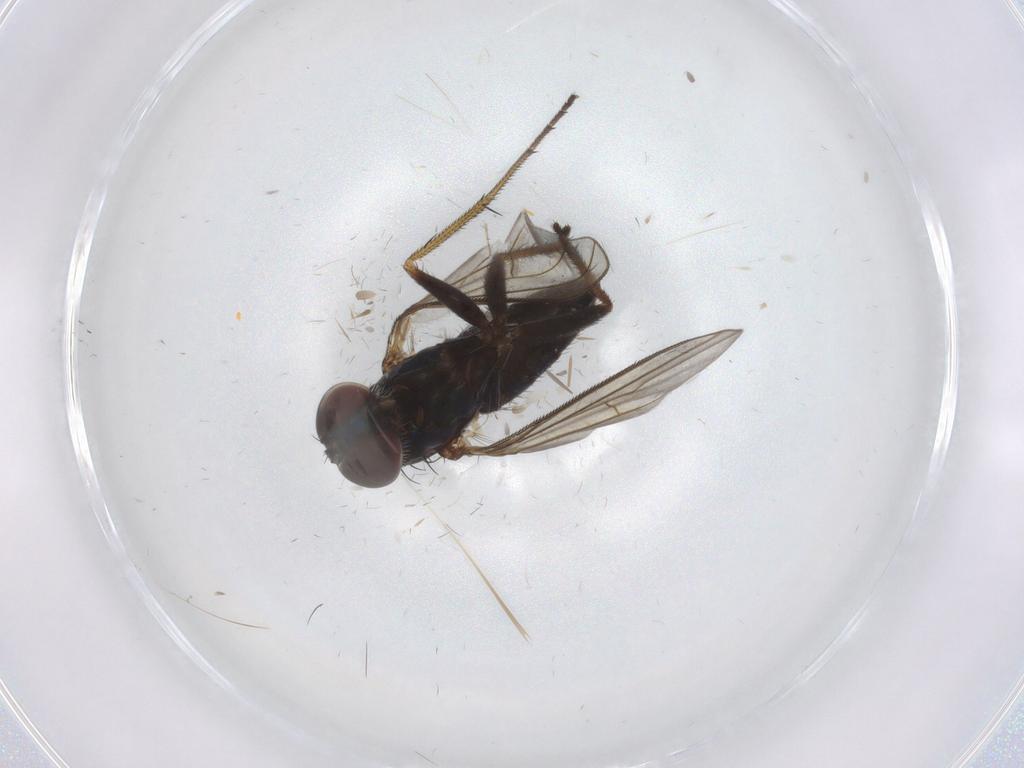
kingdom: Animalia
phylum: Arthropoda
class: Insecta
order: Diptera
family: Dolichopodidae
